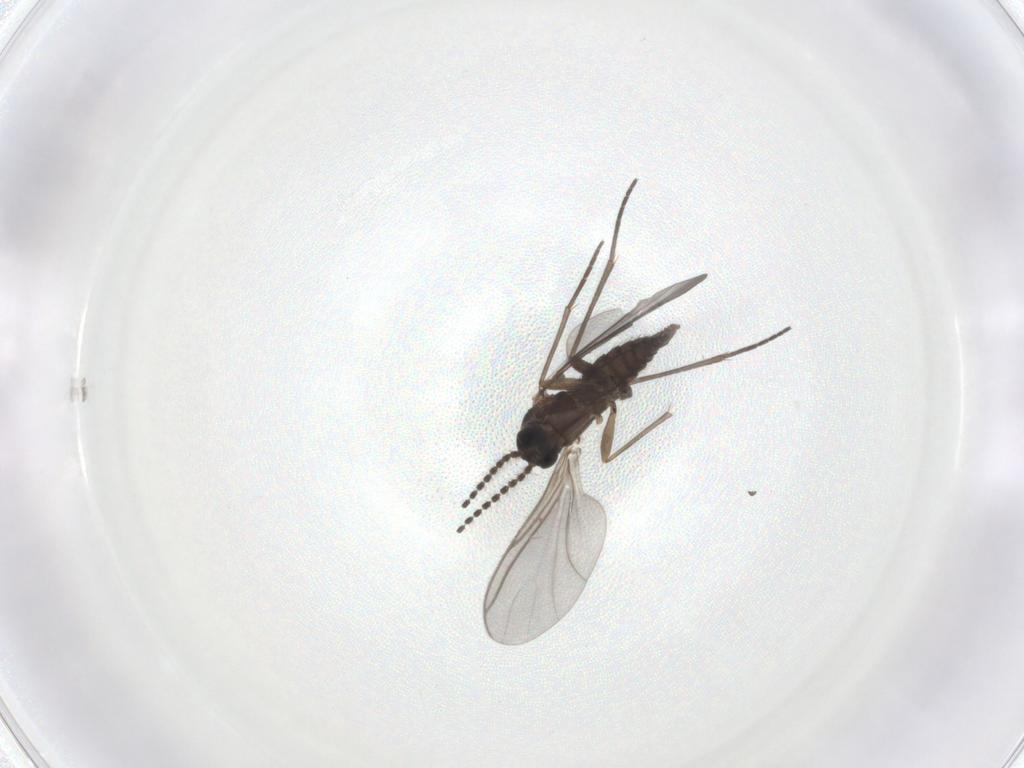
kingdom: Animalia
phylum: Arthropoda
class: Insecta
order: Diptera
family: Sciaridae
